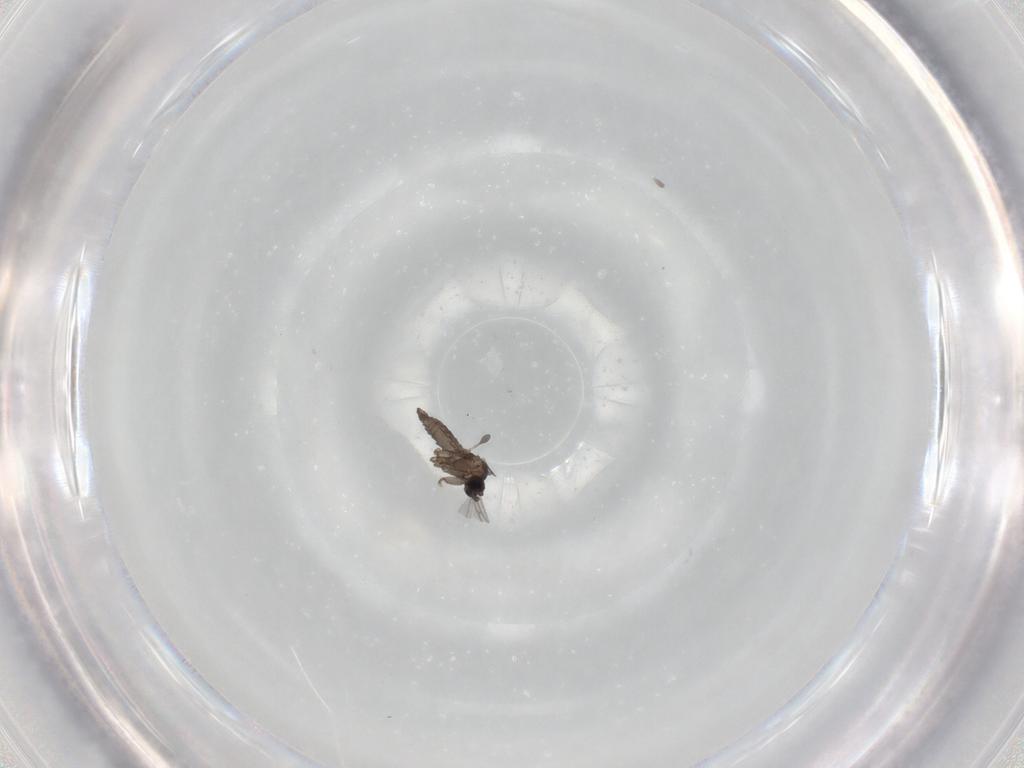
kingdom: Animalia
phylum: Arthropoda
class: Insecta
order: Diptera
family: Sciaridae
